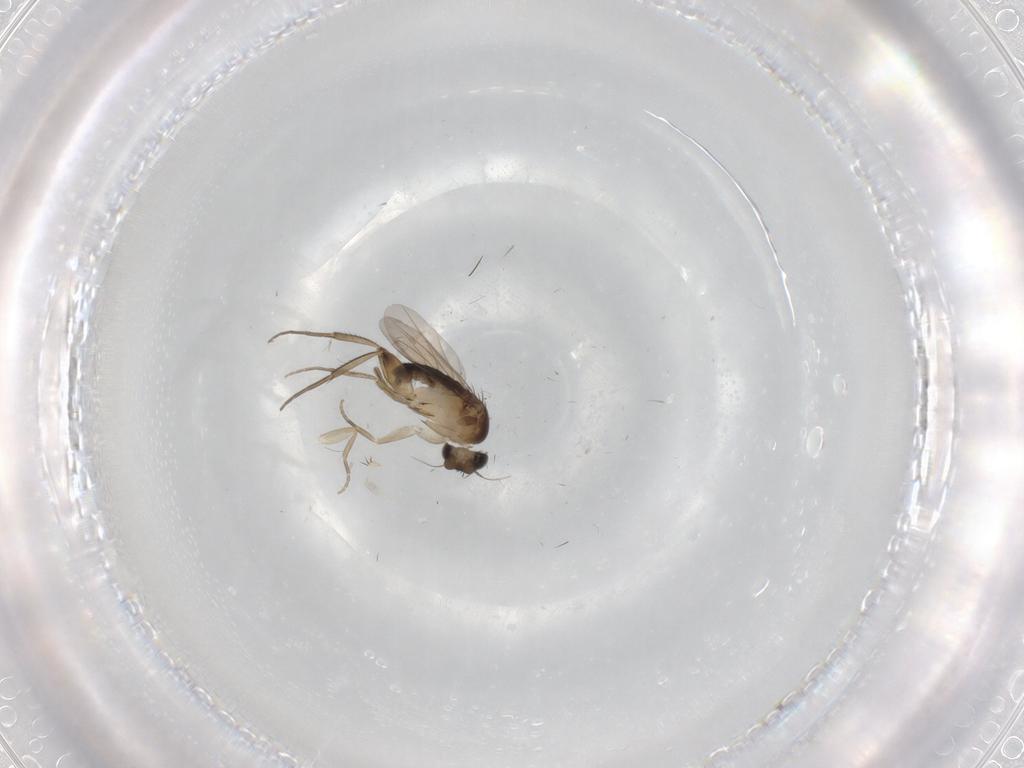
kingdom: Animalia
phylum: Arthropoda
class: Insecta
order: Diptera
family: Phoridae
